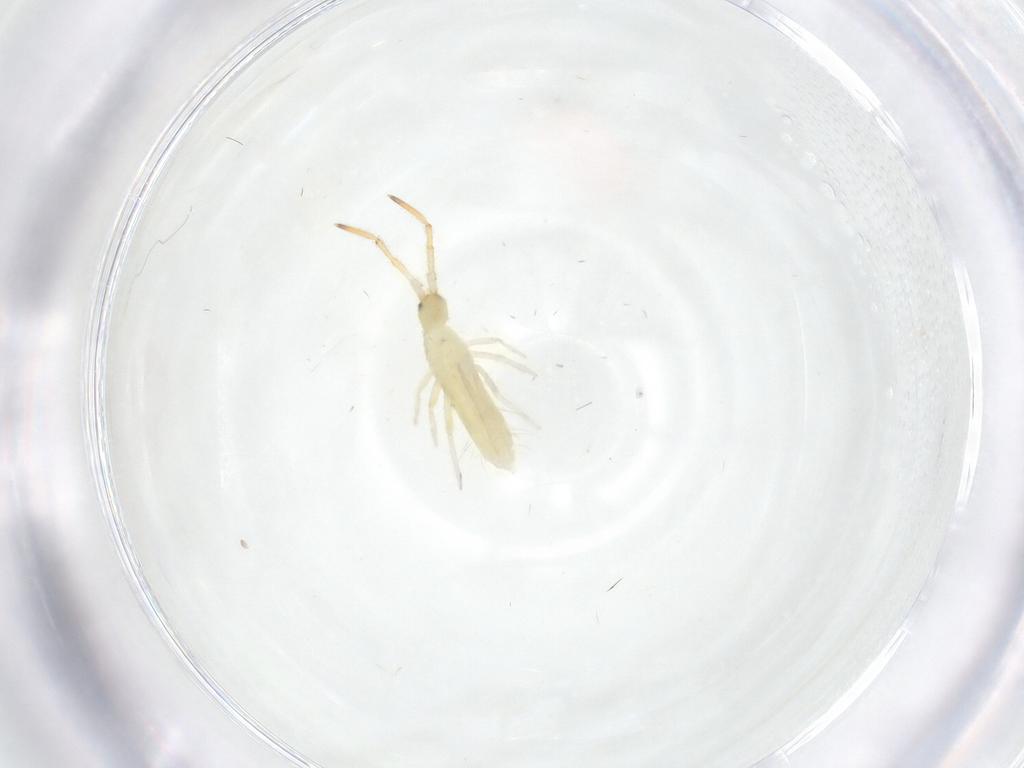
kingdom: Animalia
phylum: Arthropoda
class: Collembola
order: Entomobryomorpha
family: Entomobryidae
